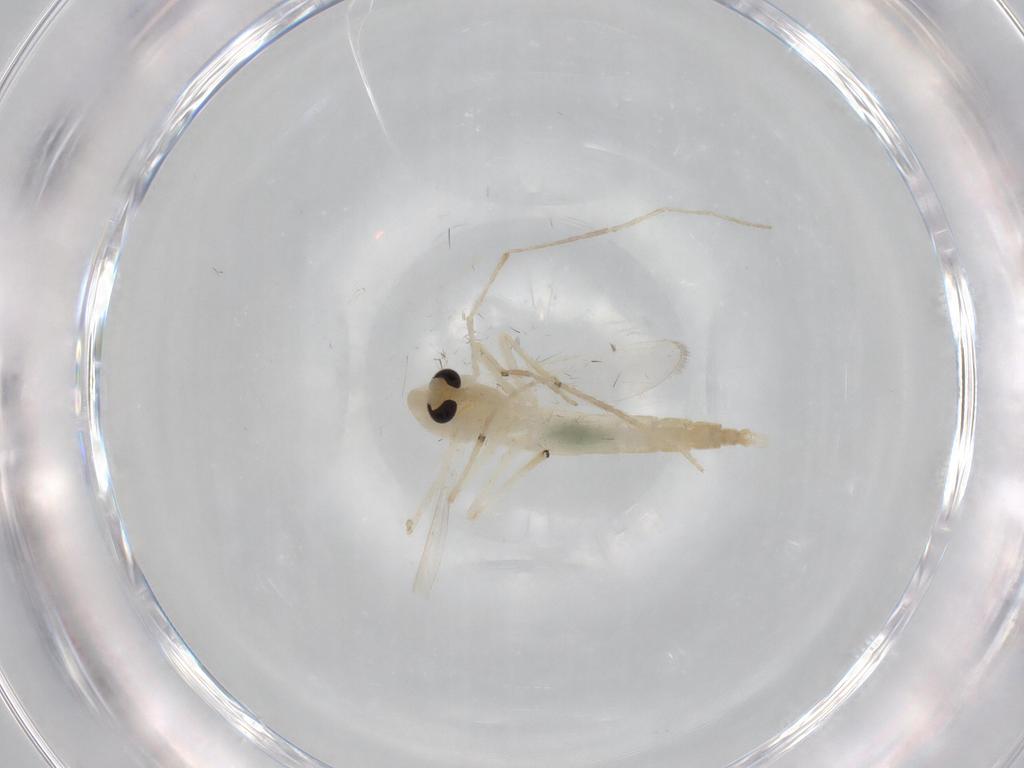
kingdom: Animalia
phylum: Arthropoda
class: Insecta
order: Diptera
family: Chironomidae
